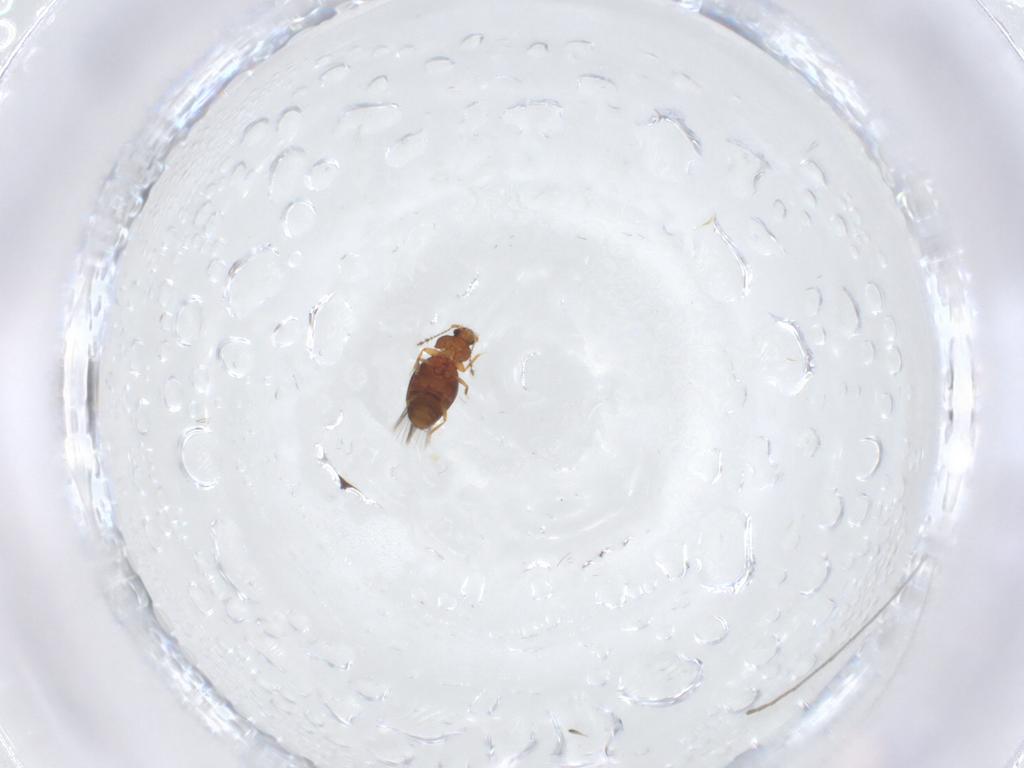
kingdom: Animalia
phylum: Arthropoda
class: Insecta
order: Coleoptera
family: Ptiliidae
